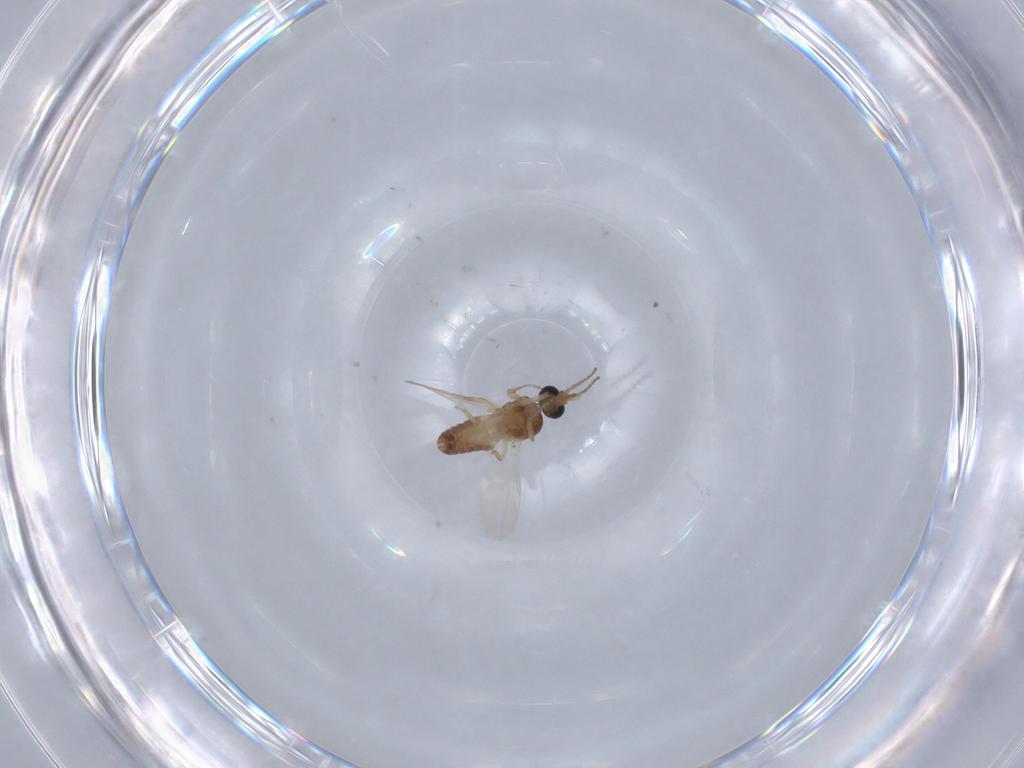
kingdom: Animalia
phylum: Arthropoda
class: Insecta
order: Diptera
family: Ceratopogonidae
